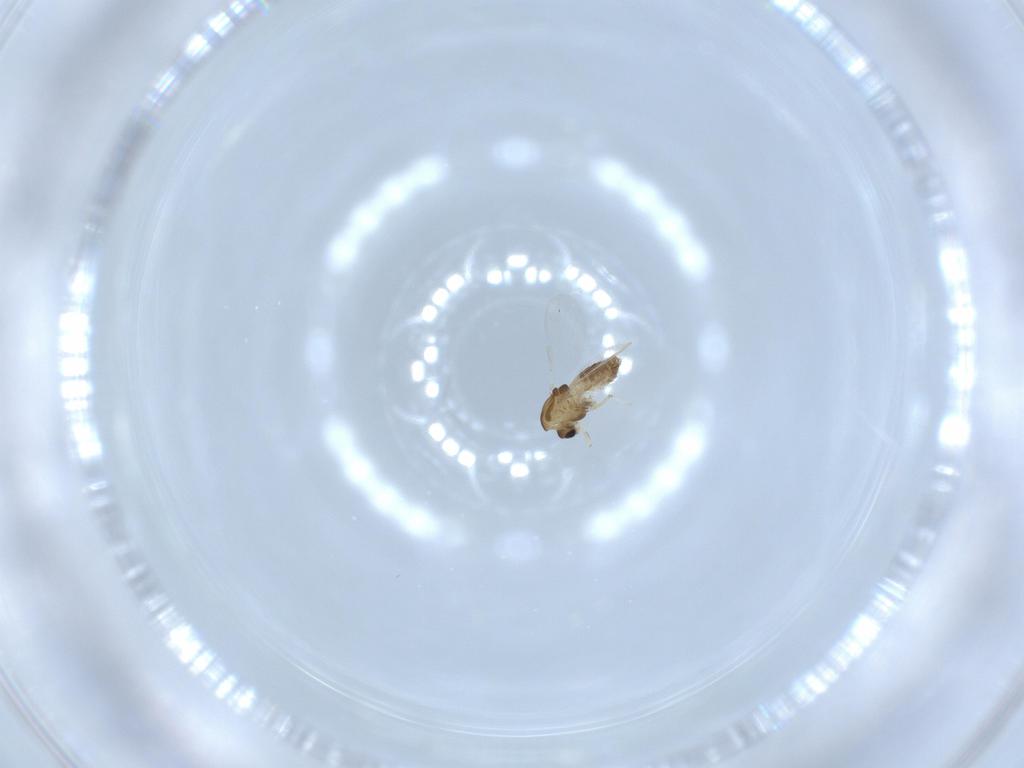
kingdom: Animalia
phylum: Arthropoda
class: Insecta
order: Diptera
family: Chironomidae
